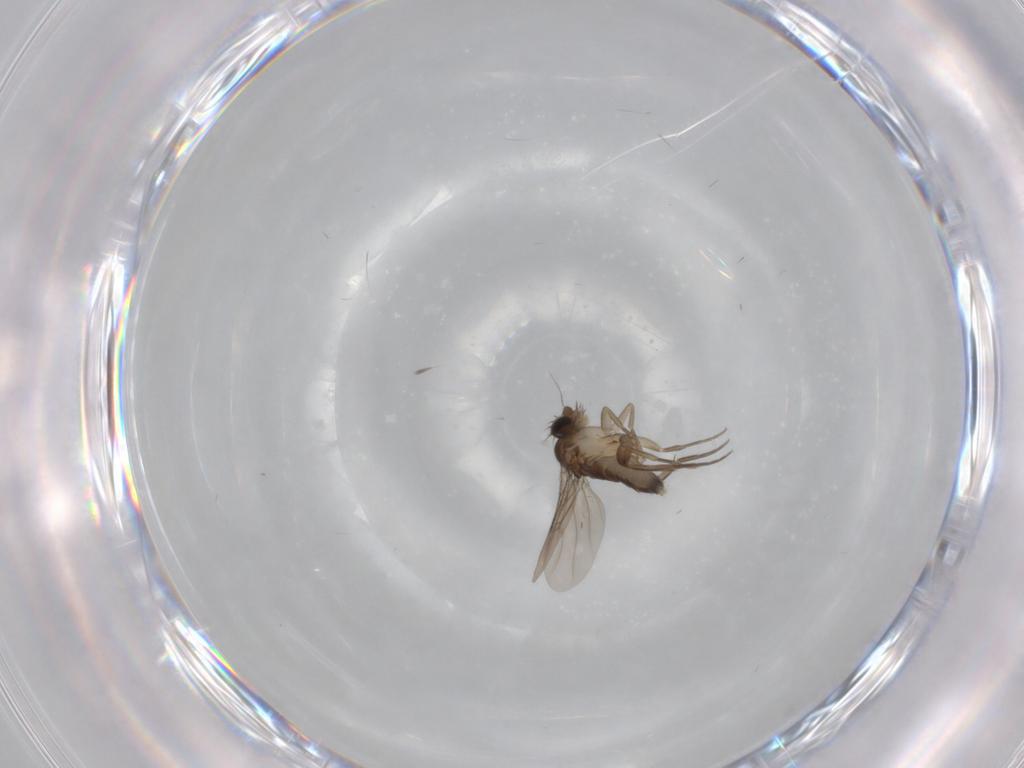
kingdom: Animalia
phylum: Arthropoda
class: Insecta
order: Diptera
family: Phoridae
